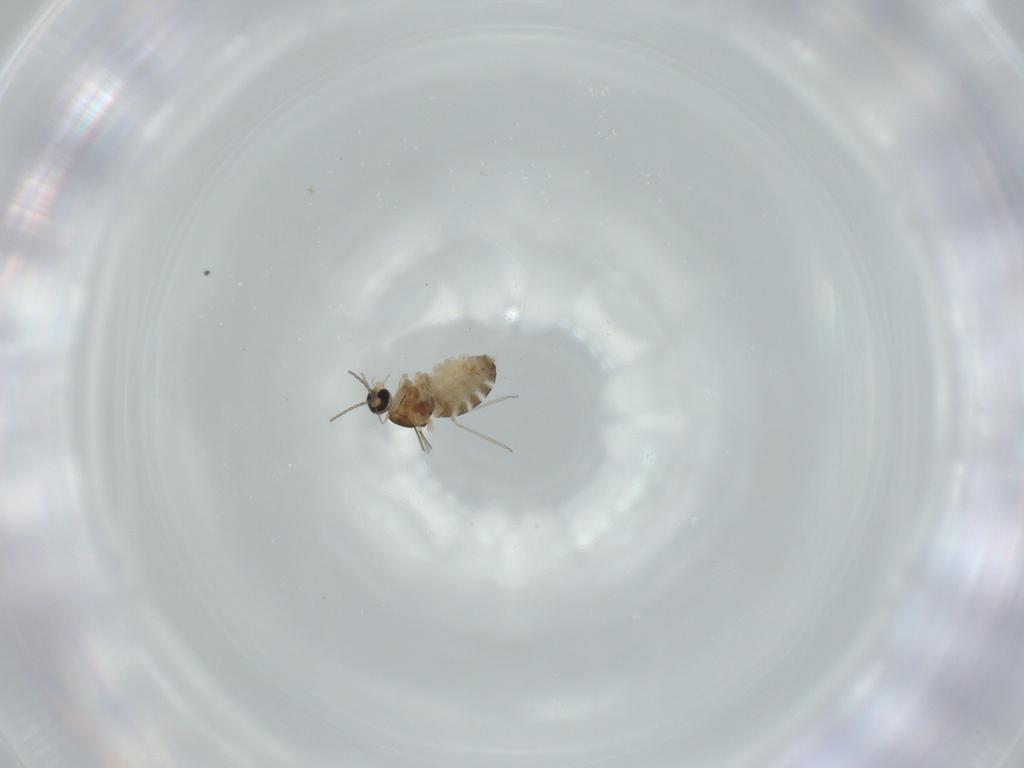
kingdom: Animalia
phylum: Arthropoda
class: Insecta
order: Diptera
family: Cecidomyiidae
